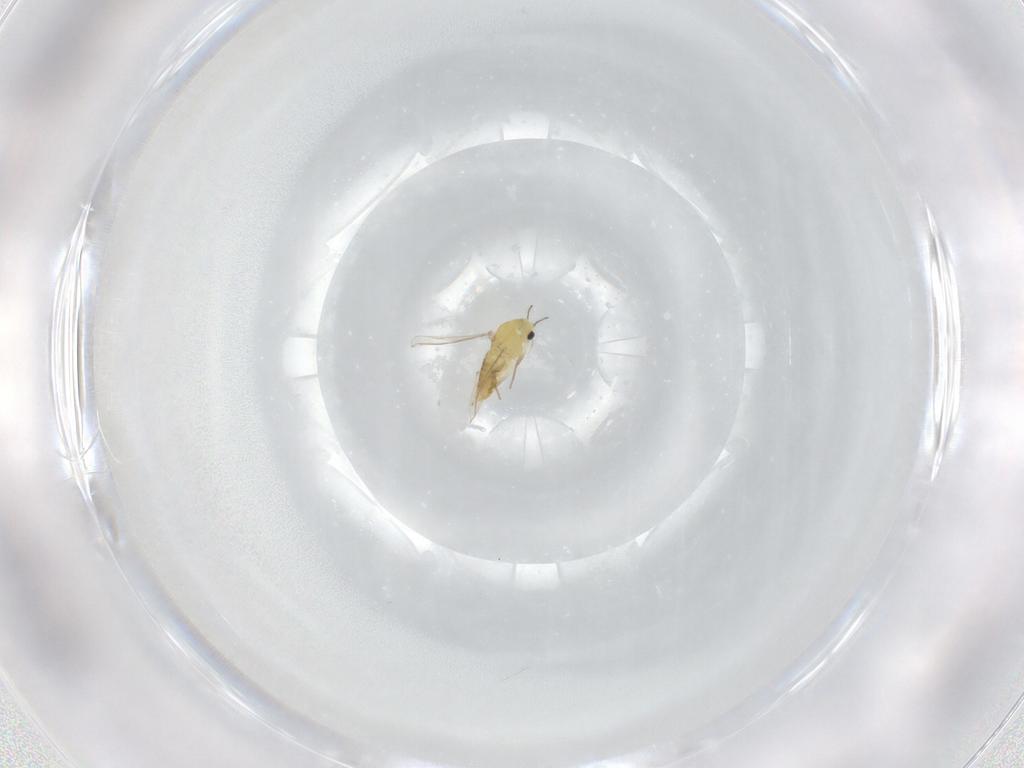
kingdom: Animalia
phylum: Arthropoda
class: Insecta
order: Diptera
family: Chironomidae
